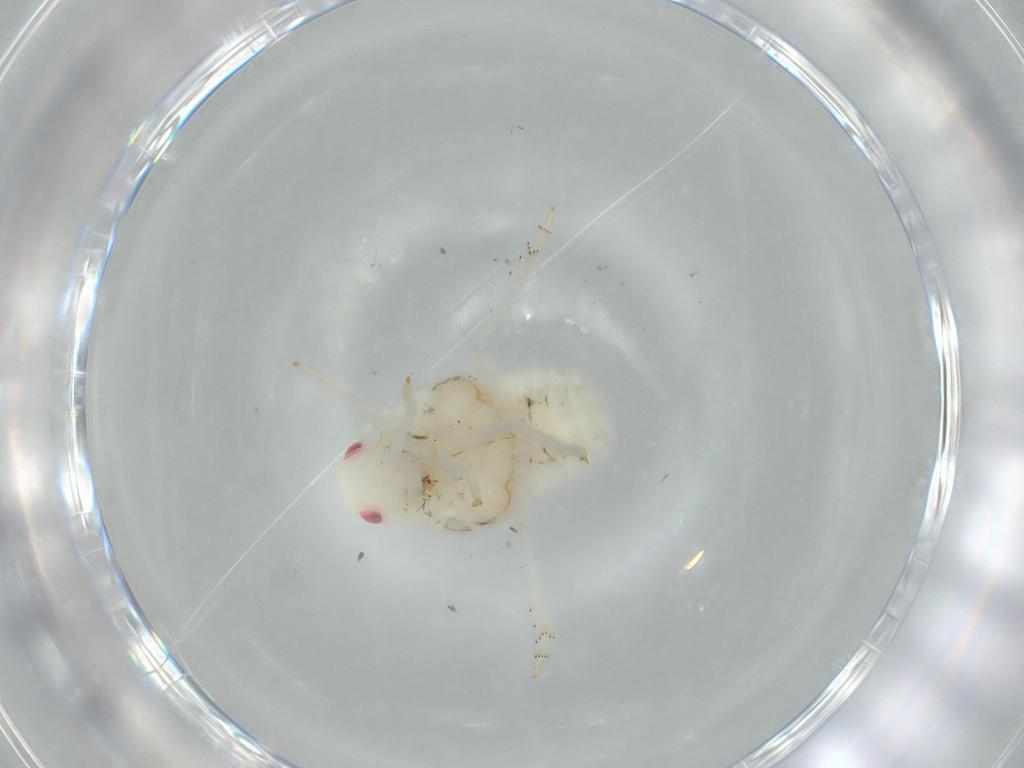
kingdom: Animalia
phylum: Arthropoda
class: Insecta
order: Hemiptera
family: Flatidae
